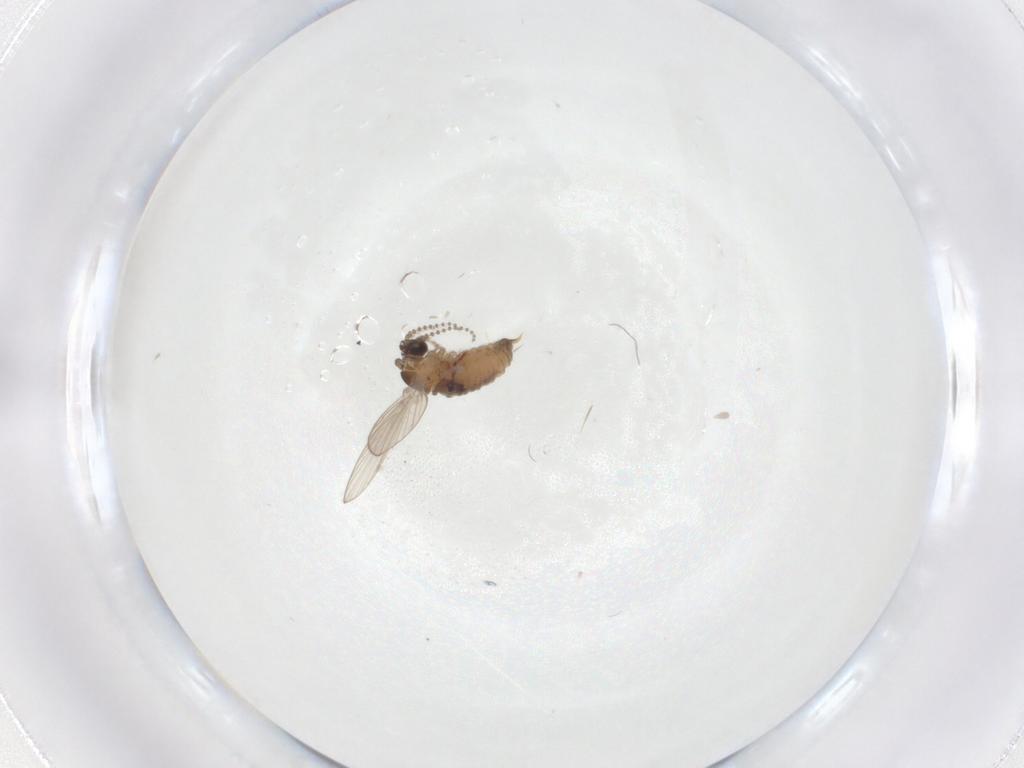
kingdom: Animalia
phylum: Arthropoda
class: Insecta
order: Diptera
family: Psychodidae
